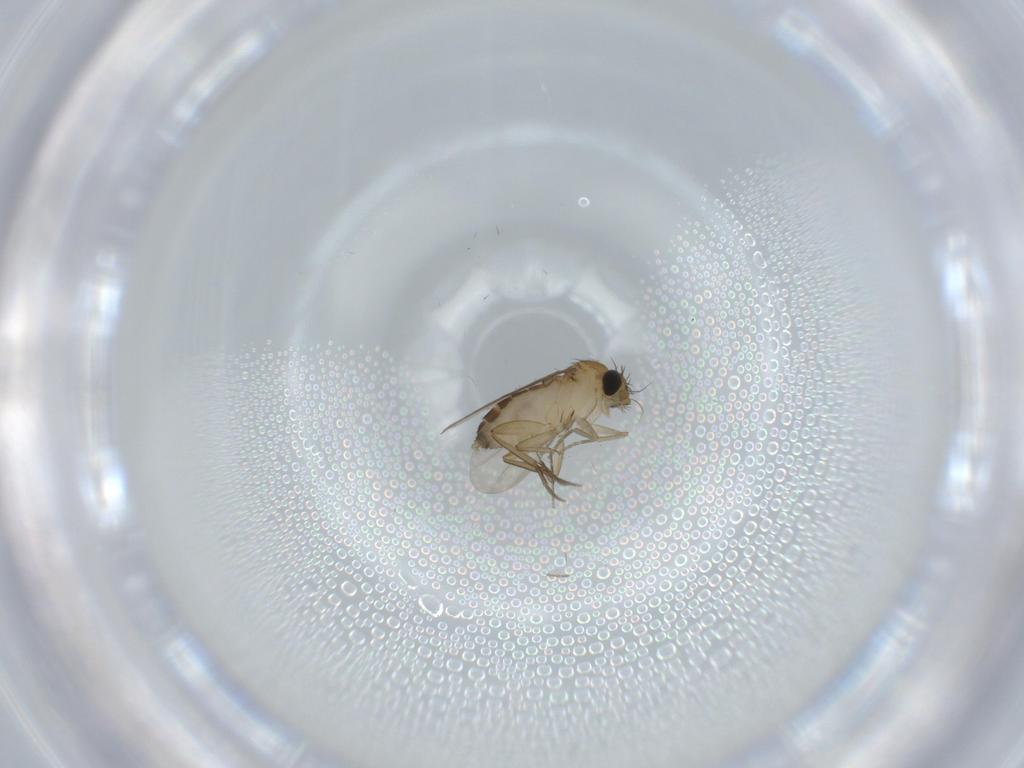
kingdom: Animalia
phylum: Arthropoda
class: Insecta
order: Diptera
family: Phoridae
